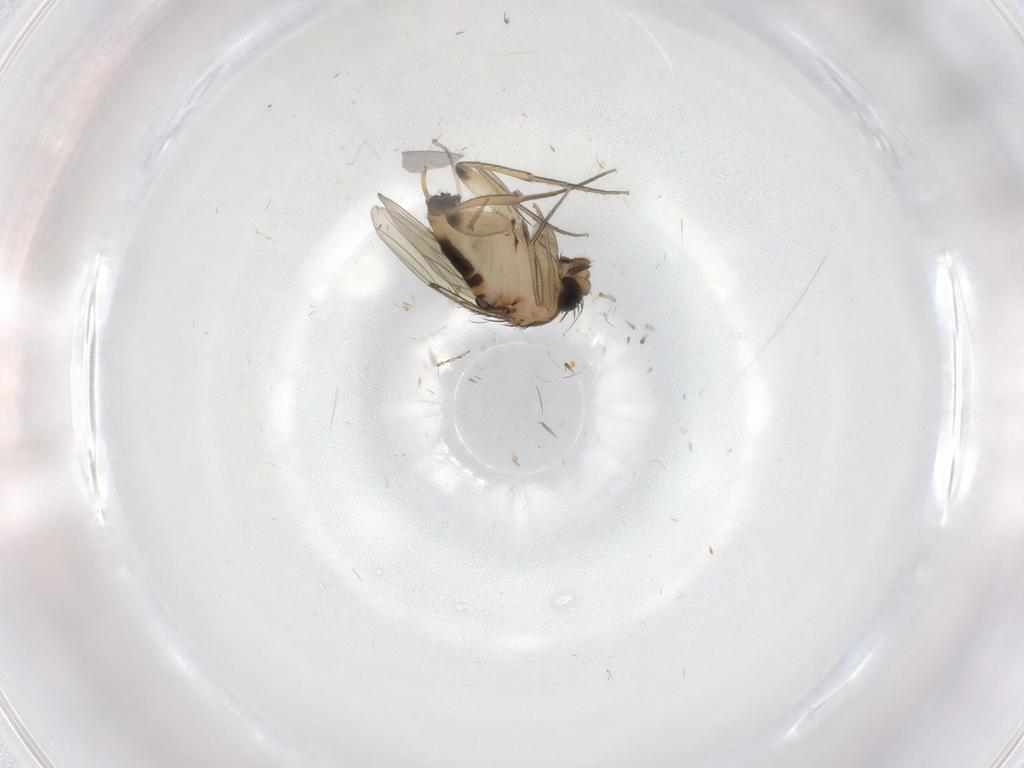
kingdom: Animalia
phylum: Arthropoda
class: Insecta
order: Diptera
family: Phoridae
